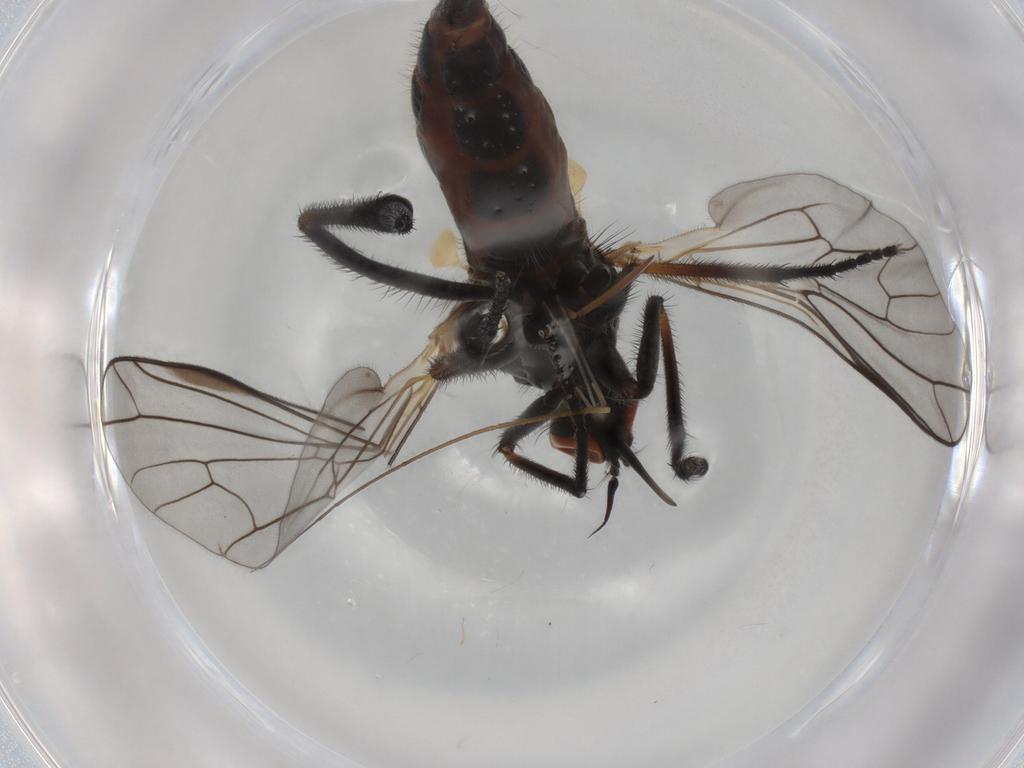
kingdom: Animalia
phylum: Arthropoda
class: Insecta
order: Diptera
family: Empididae
